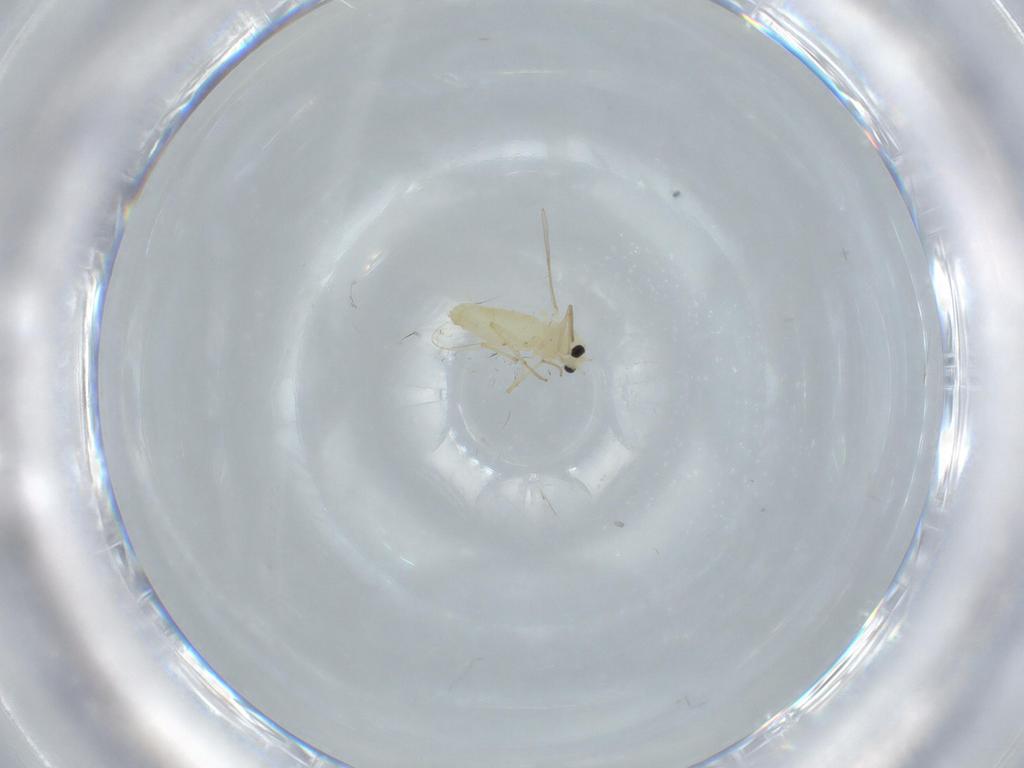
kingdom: Animalia
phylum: Arthropoda
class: Insecta
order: Diptera
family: Chironomidae
